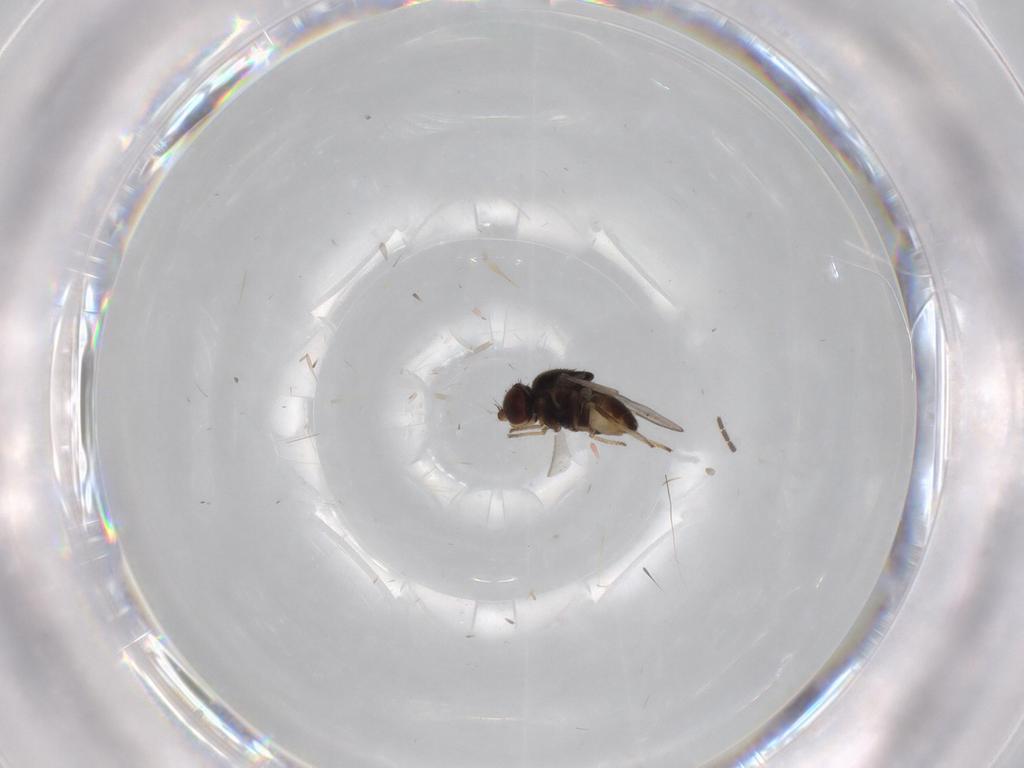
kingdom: Animalia
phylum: Arthropoda
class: Insecta
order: Diptera
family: Chloropidae
